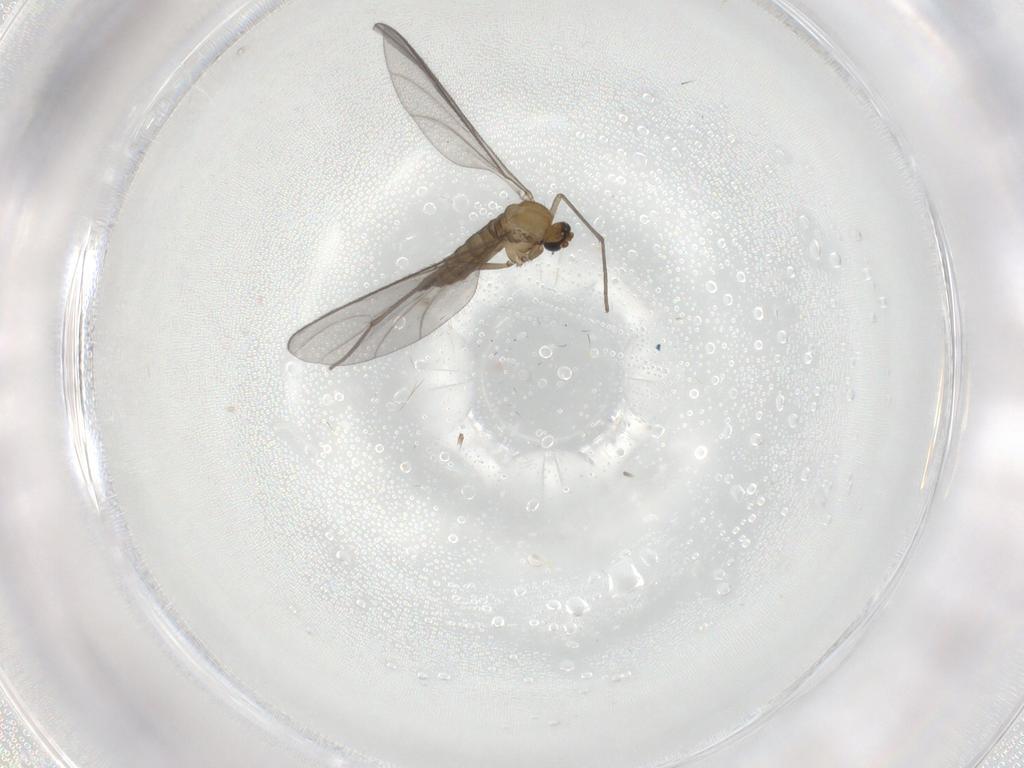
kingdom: Animalia
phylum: Arthropoda
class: Insecta
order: Diptera
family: Sciaridae
